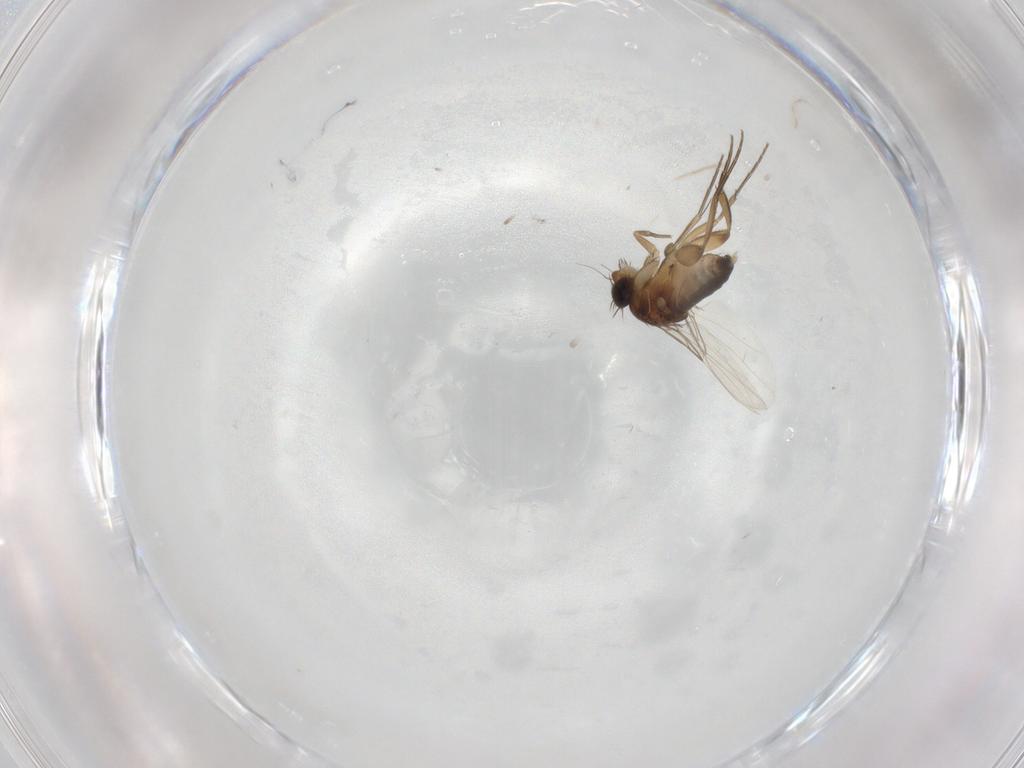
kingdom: Animalia
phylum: Arthropoda
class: Insecta
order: Diptera
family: Phoridae
